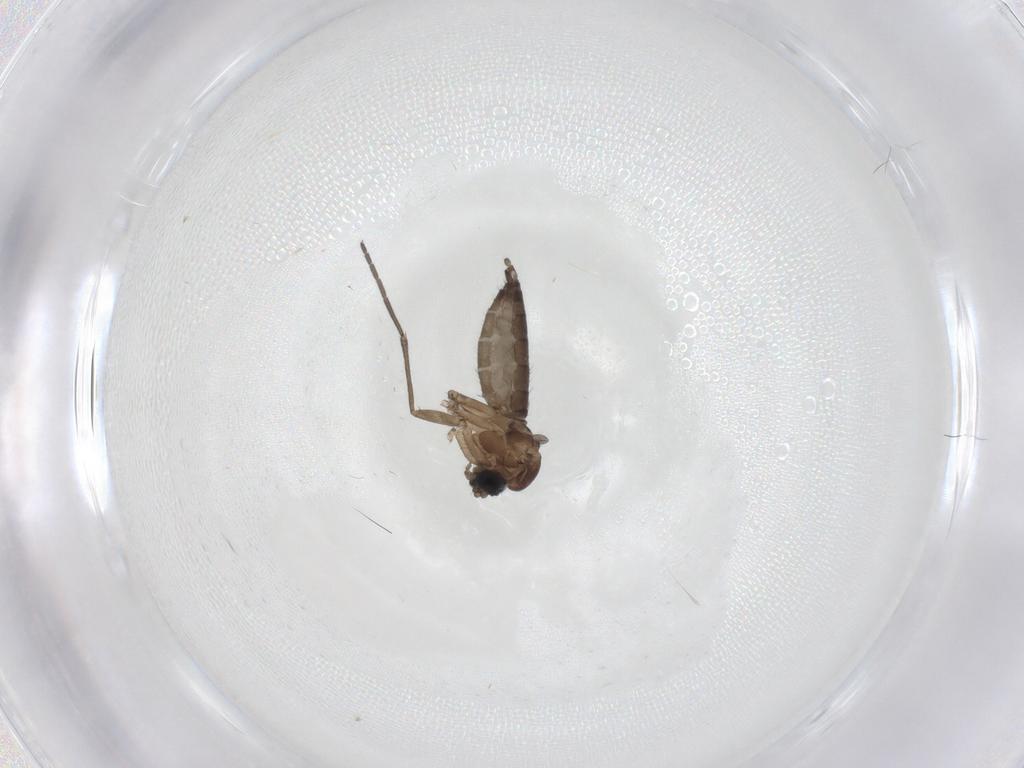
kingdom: Animalia
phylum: Arthropoda
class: Insecta
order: Diptera
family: Sciaridae
